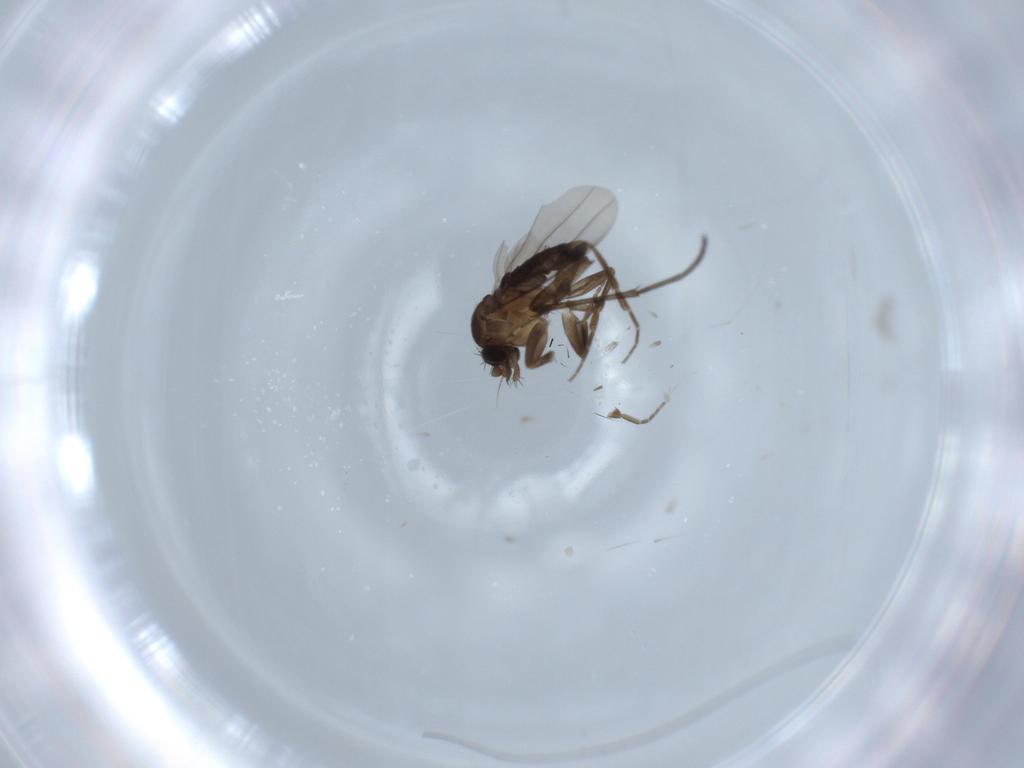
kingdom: Animalia
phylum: Arthropoda
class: Insecta
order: Diptera
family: Sciaridae
